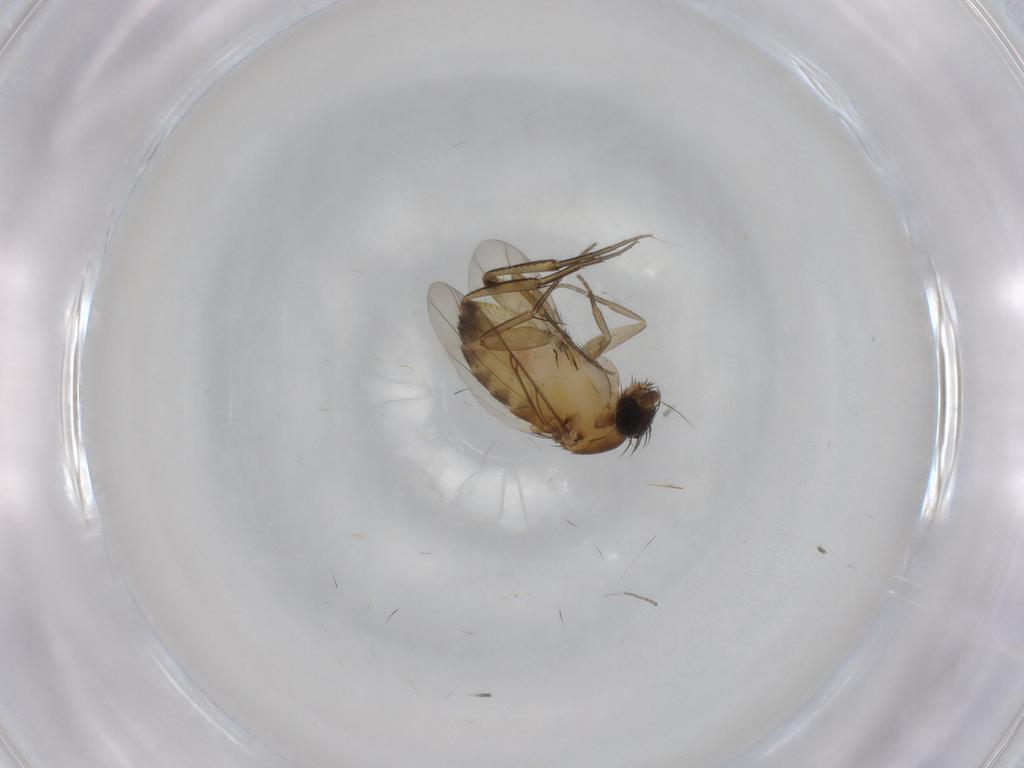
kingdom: Animalia
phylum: Arthropoda
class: Insecta
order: Diptera
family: Phoridae
